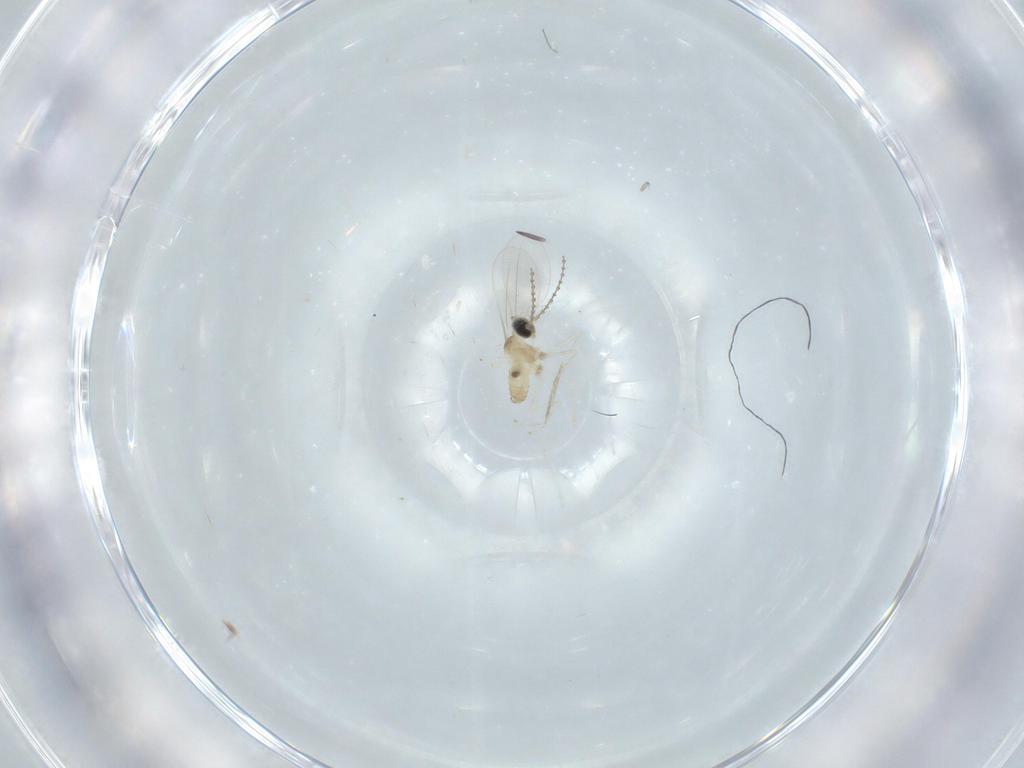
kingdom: Animalia
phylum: Arthropoda
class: Insecta
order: Diptera
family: Cecidomyiidae
